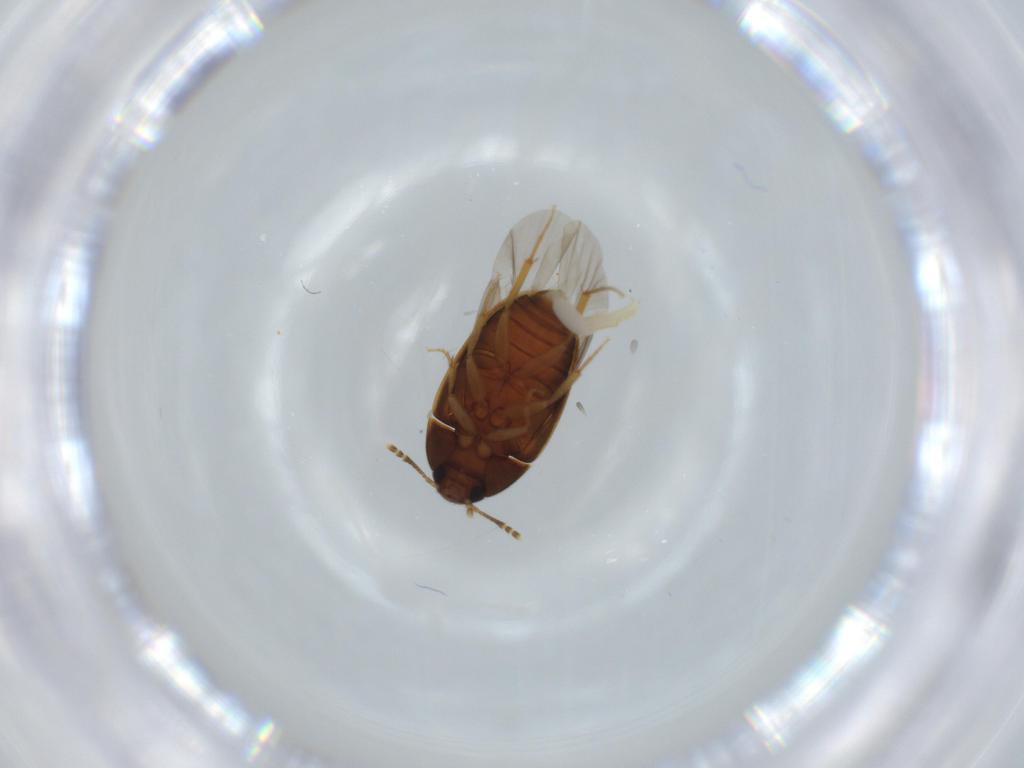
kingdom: Animalia
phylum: Arthropoda
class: Insecta
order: Coleoptera
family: Mycetophagidae
